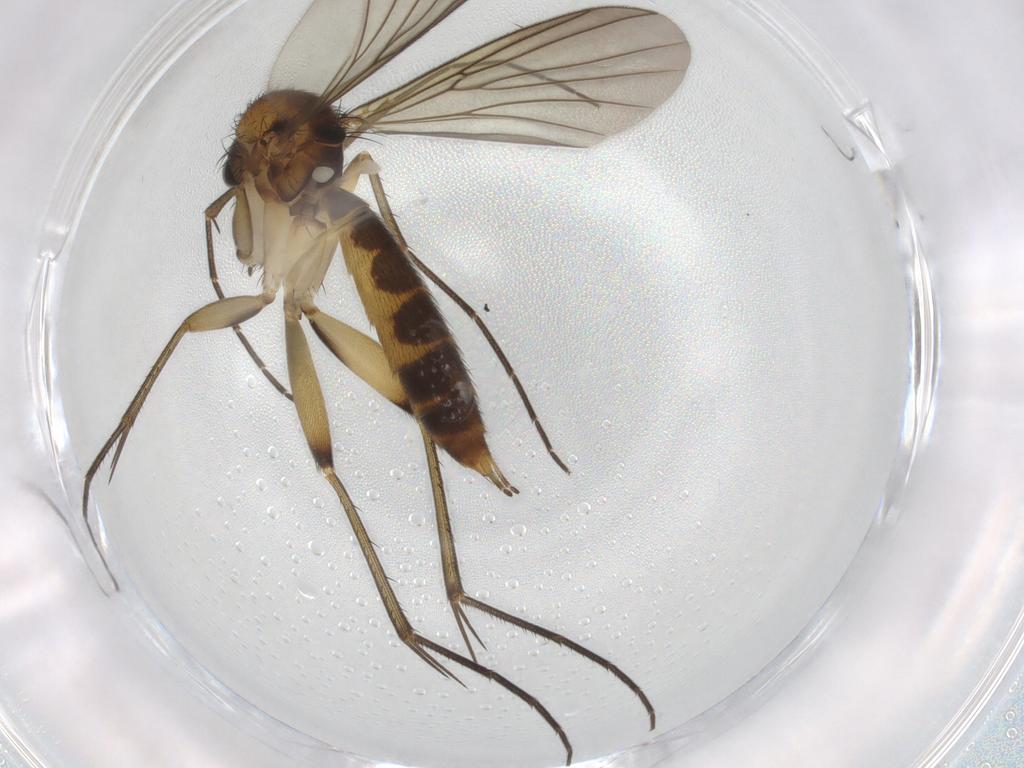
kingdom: Animalia
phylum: Arthropoda
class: Insecta
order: Diptera
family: Mycetophilidae
